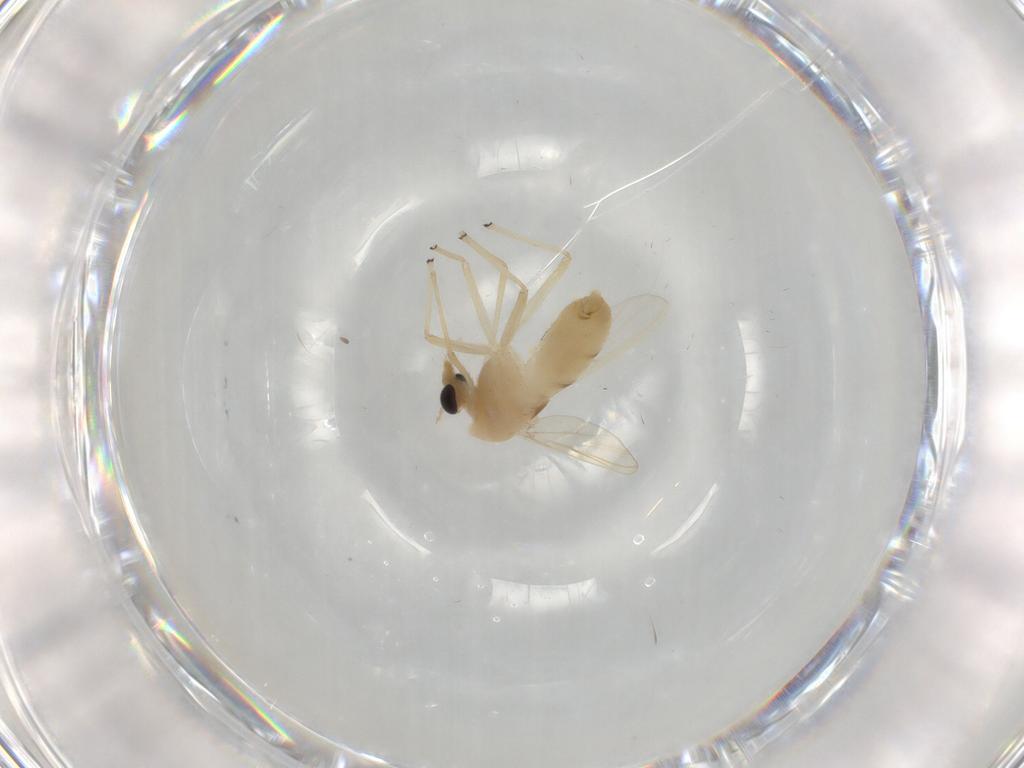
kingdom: Animalia
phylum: Arthropoda
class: Insecta
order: Diptera
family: Chironomidae
